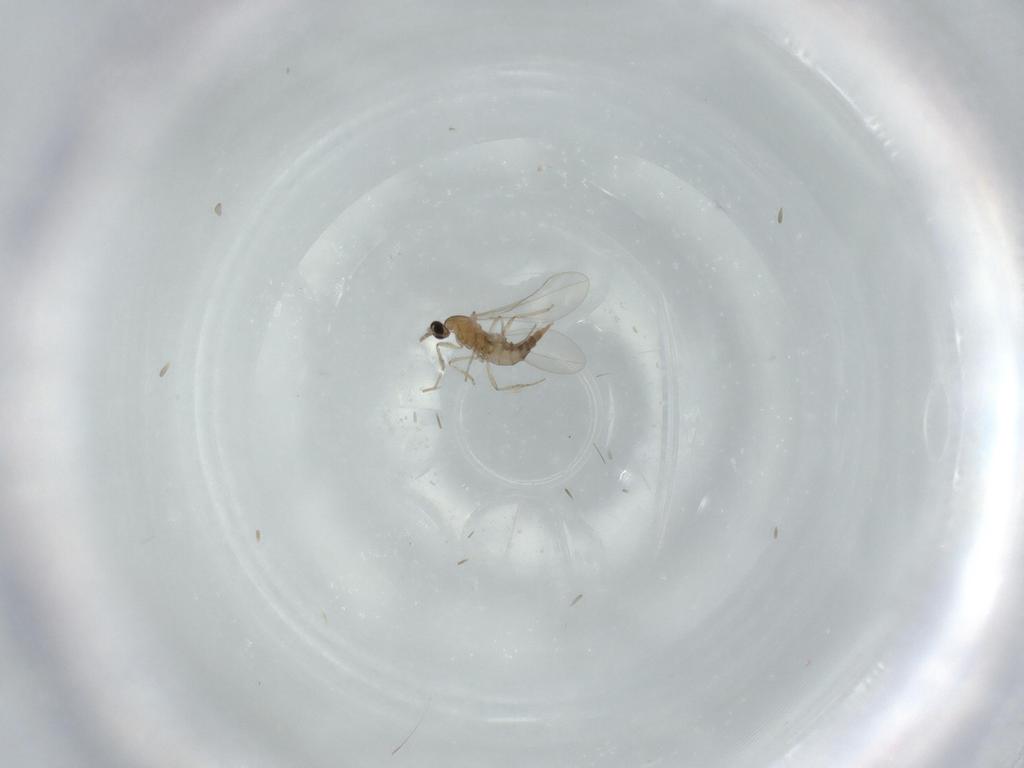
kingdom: Animalia
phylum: Arthropoda
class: Insecta
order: Diptera
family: Cecidomyiidae
